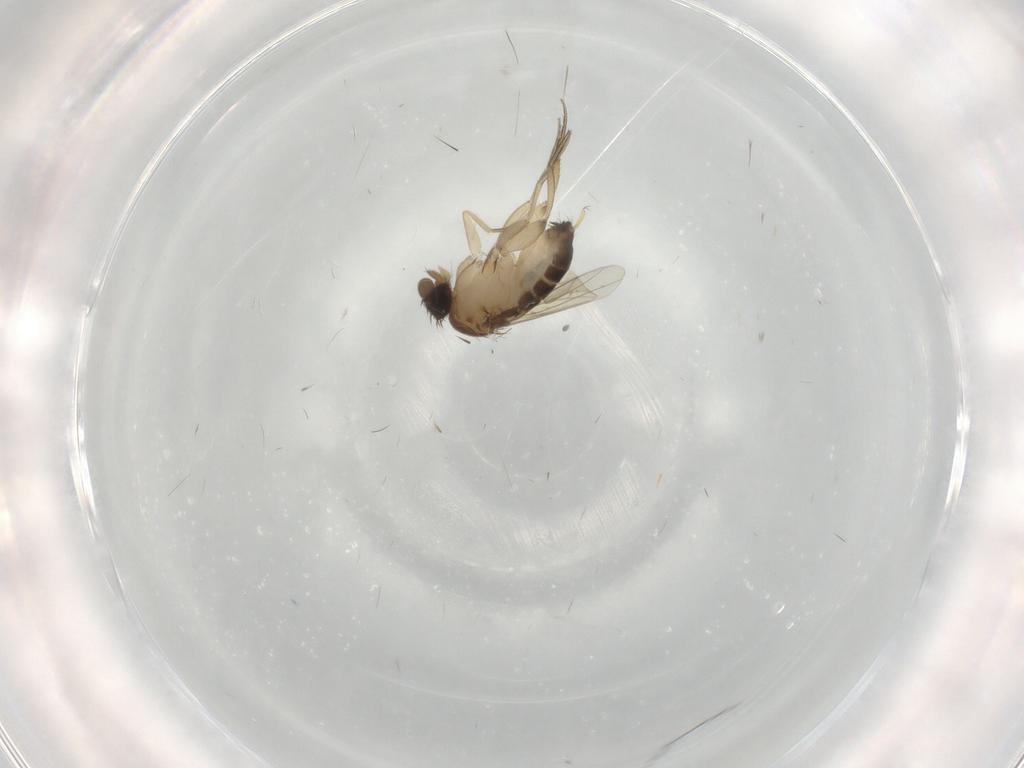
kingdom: Animalia
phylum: Arthropoda
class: Insecta
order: Diptera
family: Phoridae
